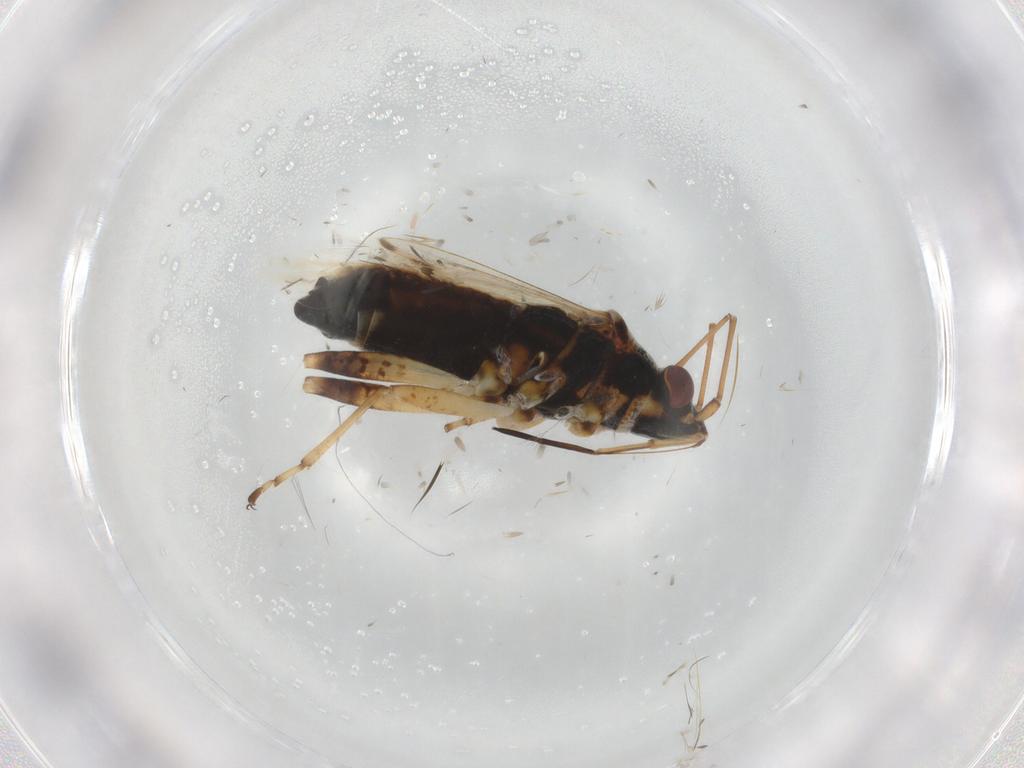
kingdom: Animalia
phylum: Arthropoda
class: Insecta
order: Hemiptera
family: Lygaeidae
